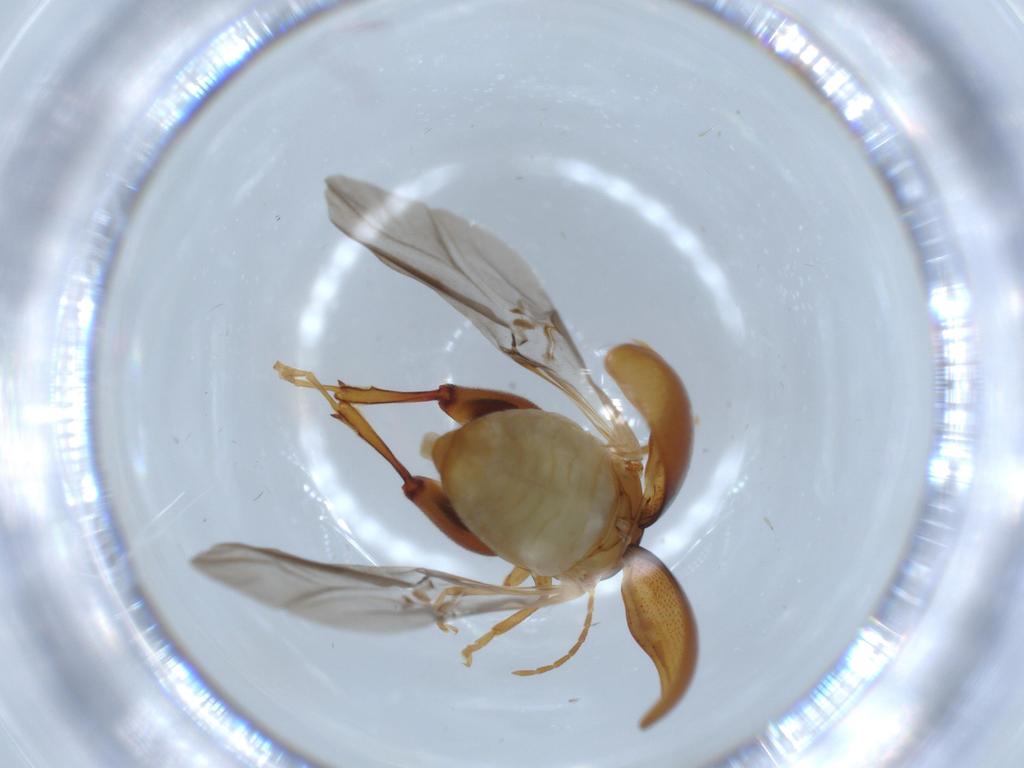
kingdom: Animalia
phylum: Arthropoda
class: Insecta
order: Coleoptera
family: Chrysomelidae
